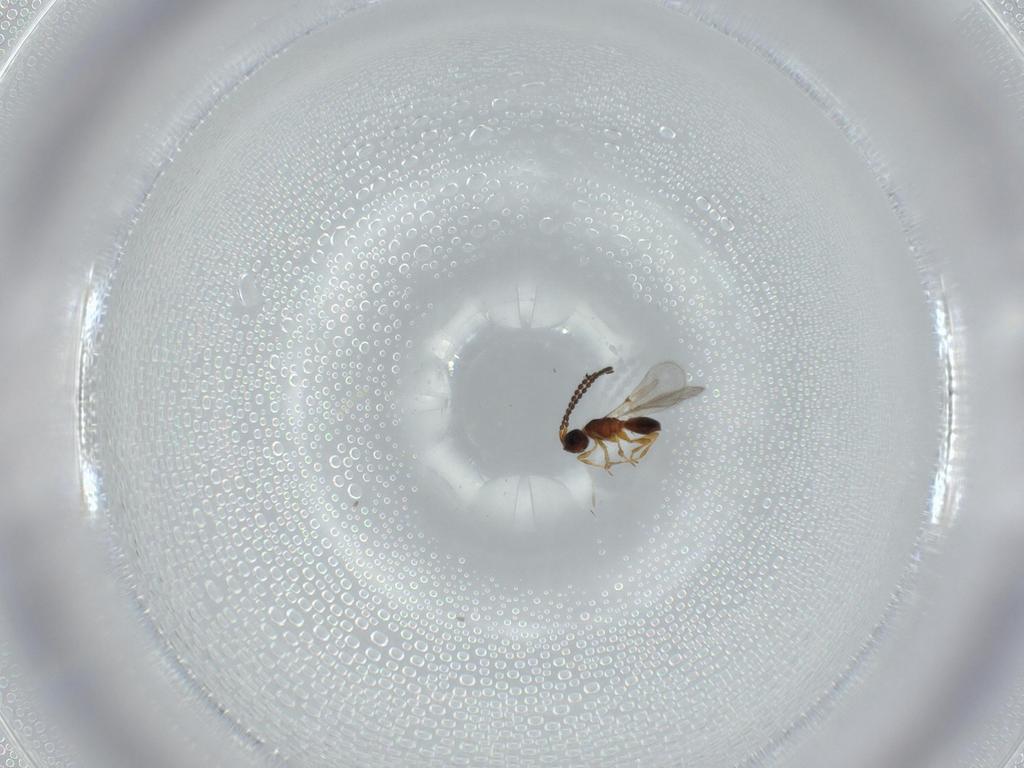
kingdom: Animalia
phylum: Arthropoda
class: Insecta
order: Hymenoptera
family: Diapriidae
